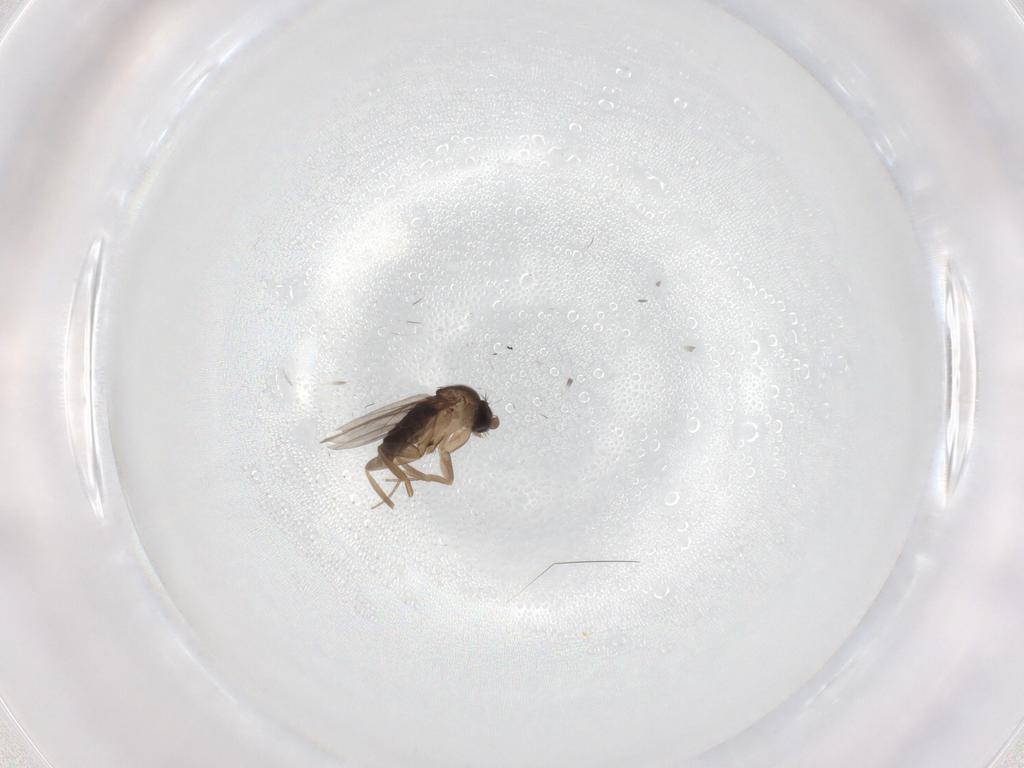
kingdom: Animalia
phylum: Arthropoda
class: Insecta
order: Diptera
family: Phoridae
